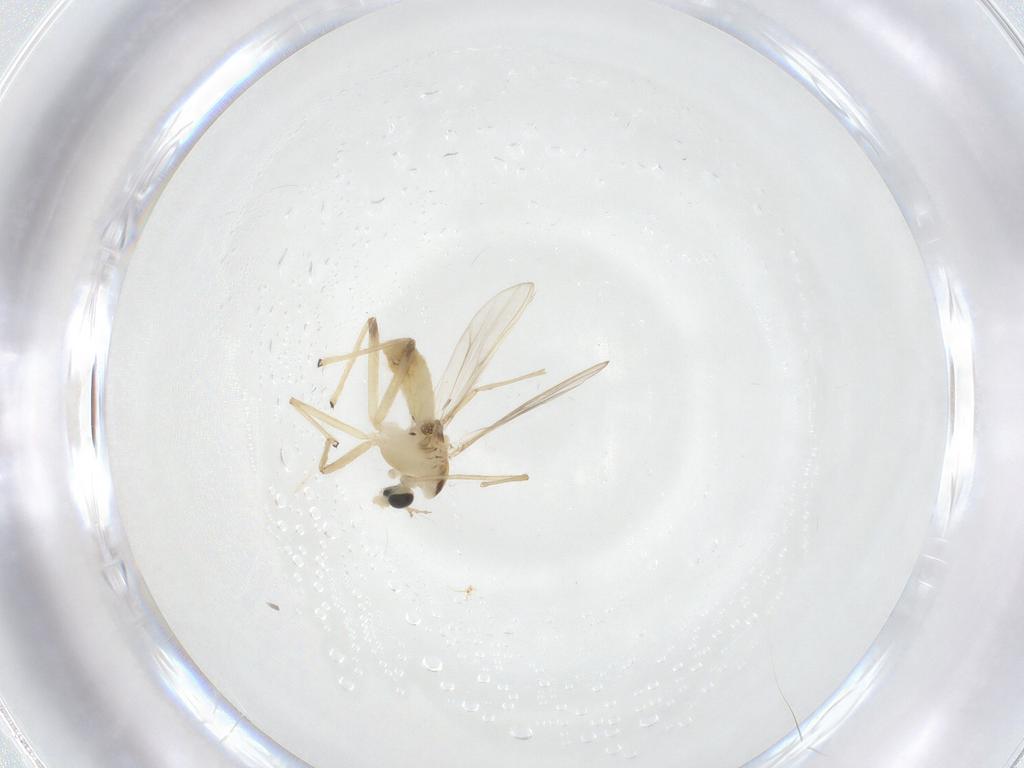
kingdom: Animalia
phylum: Arthropoda
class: Insecta
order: Diptera
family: Chironomidae
